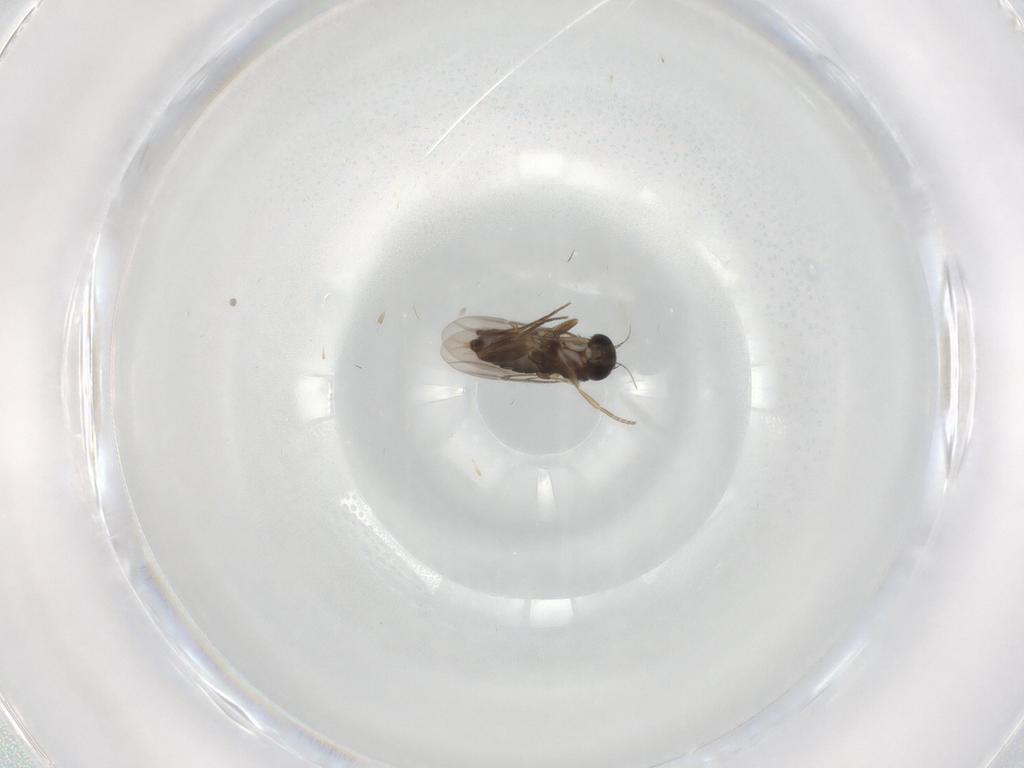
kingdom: Animalia
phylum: Arthropoda
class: Insecta
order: Diptera
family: Phoridae
